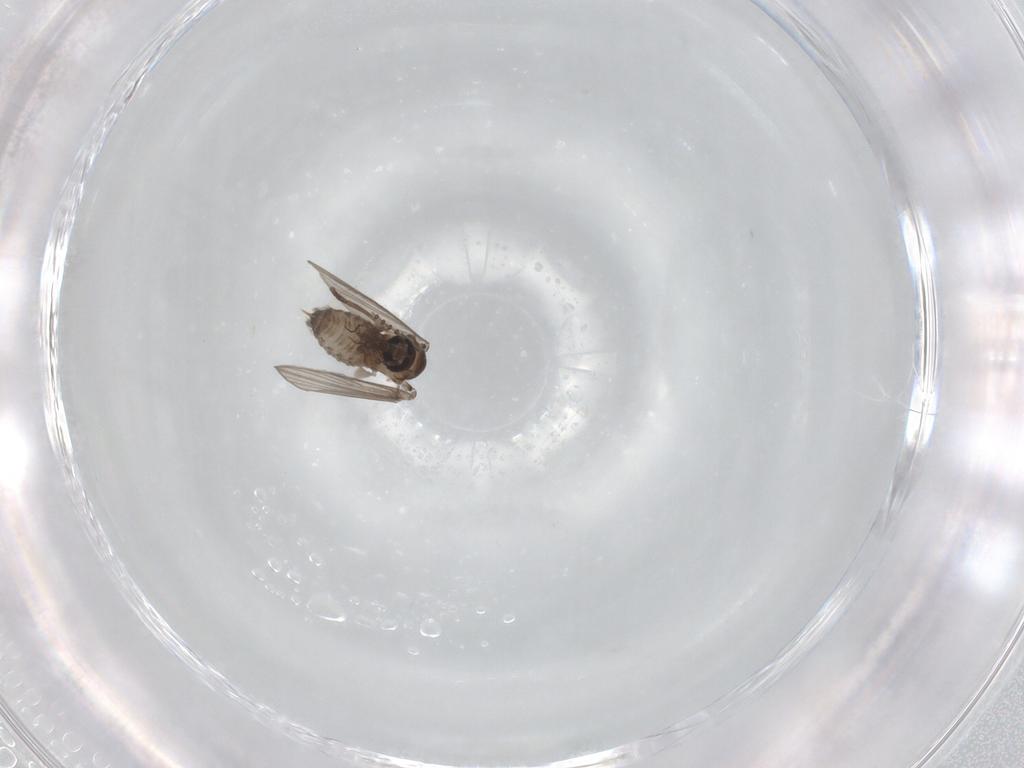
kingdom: Animalia
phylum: Arthropoda
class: Insecta
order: Diptera
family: Psychodidae
